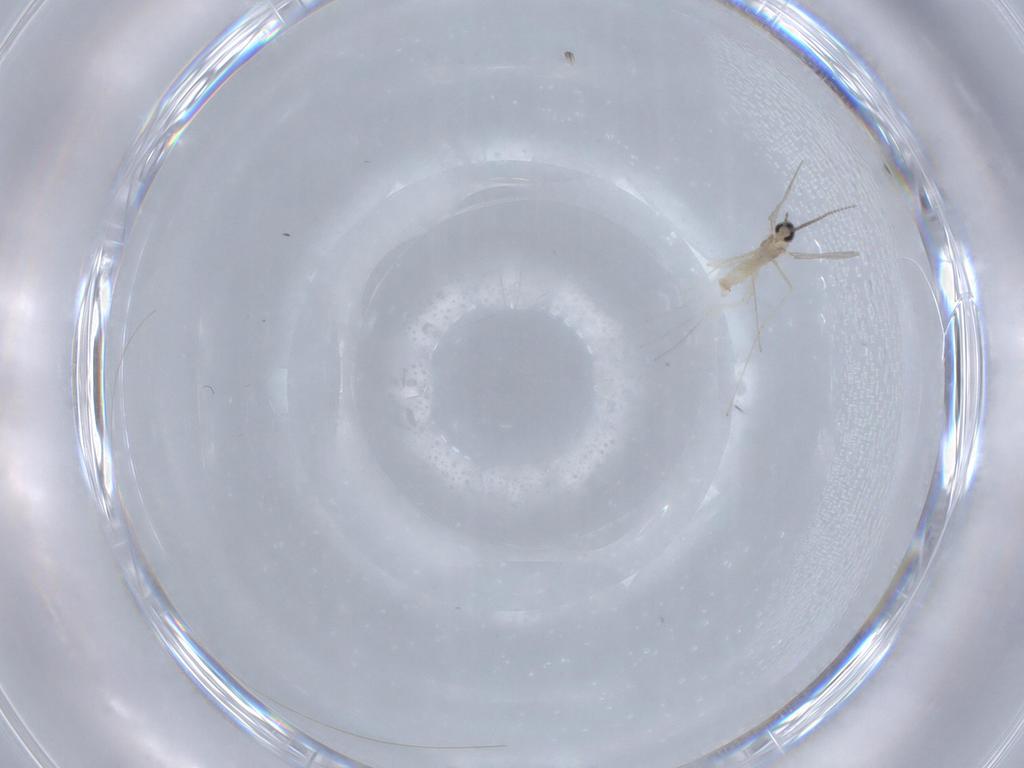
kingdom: Animalia
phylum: Arthropoda
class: Insecta
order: Diptera
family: Cecidomyiidae
